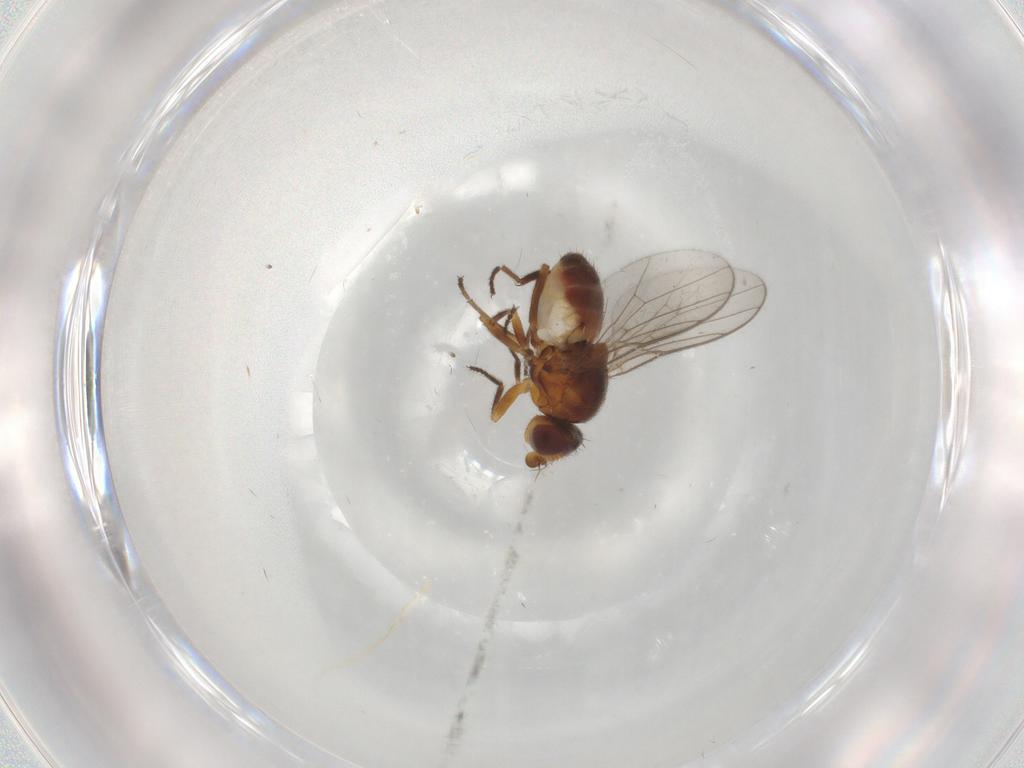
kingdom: Animalia
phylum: Arthropoda
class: Insecta
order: Diptera
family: Chloropidae
